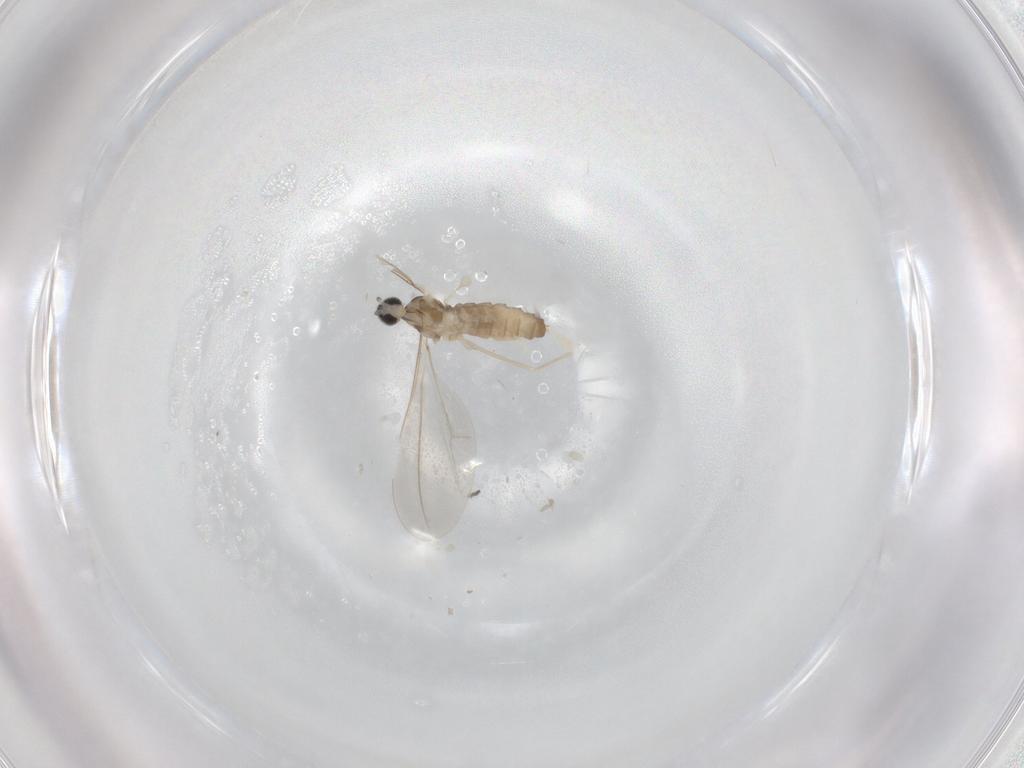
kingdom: Animalia
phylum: Arthropoda
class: Insecta
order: Diptera
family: Cecidomyiidae
